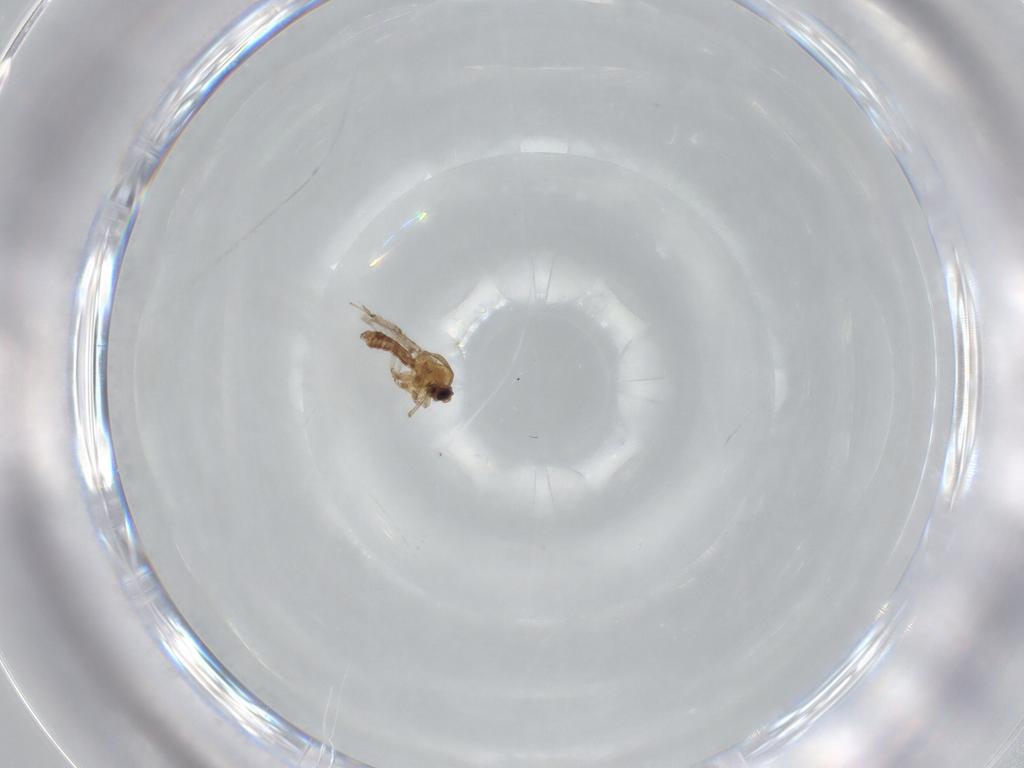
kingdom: Animalia
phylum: Arthropoda
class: Insecta
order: Diptera
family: Ceratopogonidae
